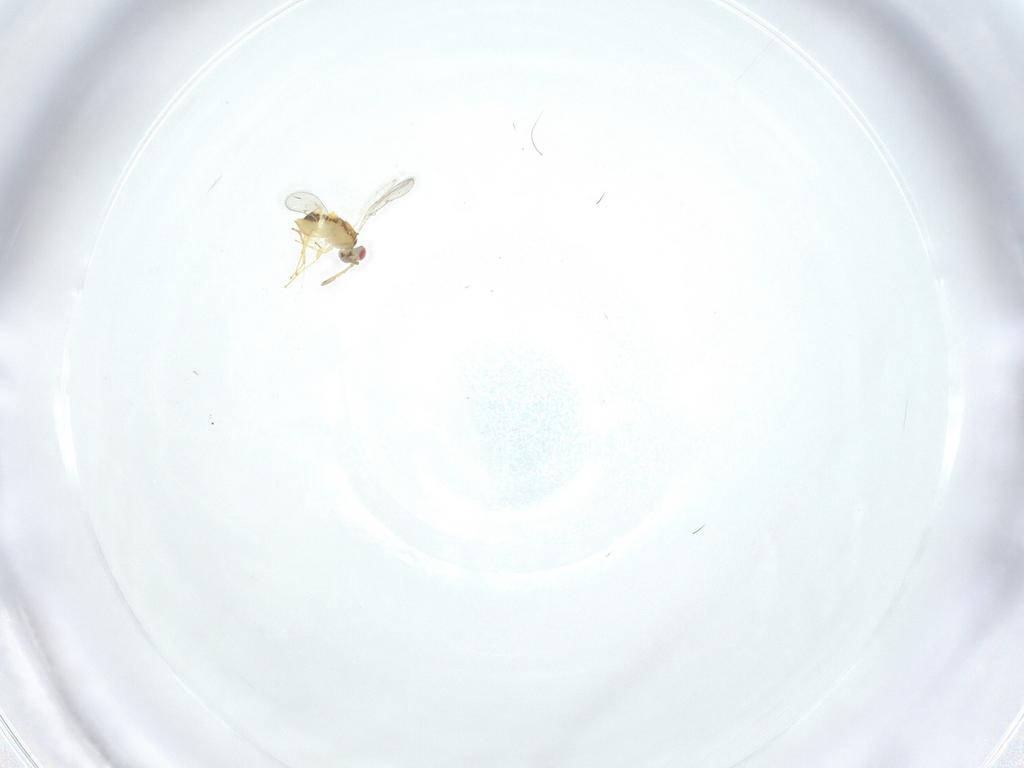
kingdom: Animalia
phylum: Arthropoda
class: Insecta
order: Hymenoptera
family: Aphelinidae
